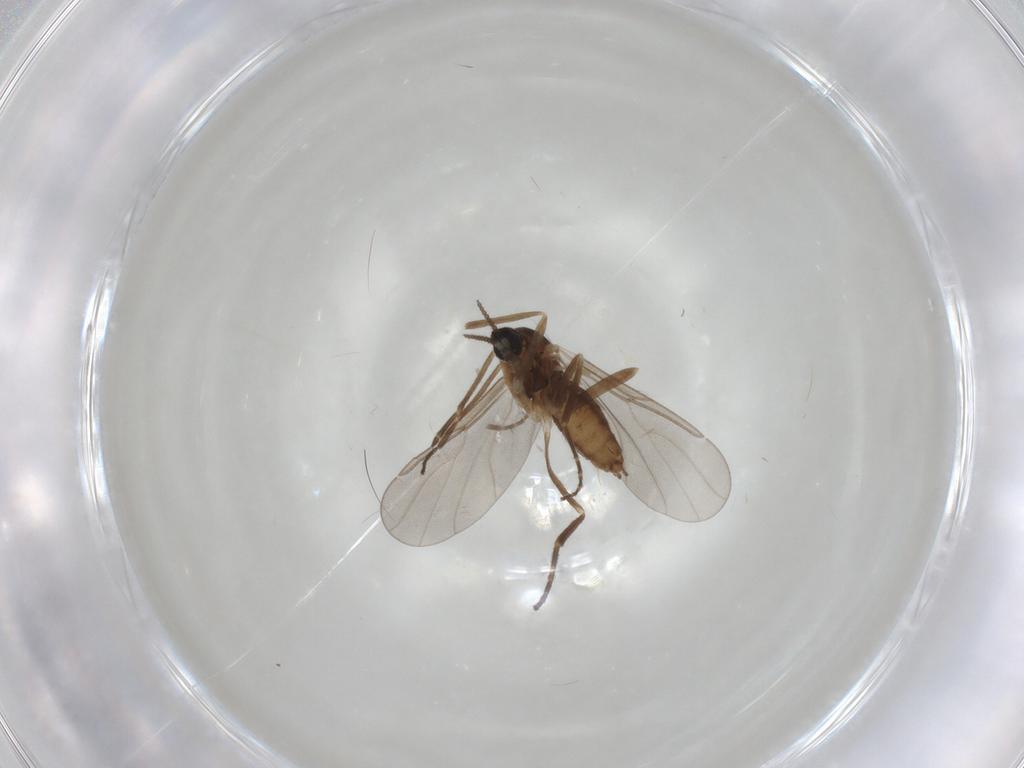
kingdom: Animalia
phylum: Arthropoda
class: Insecta
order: Diptera
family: Cecidomyiidae
